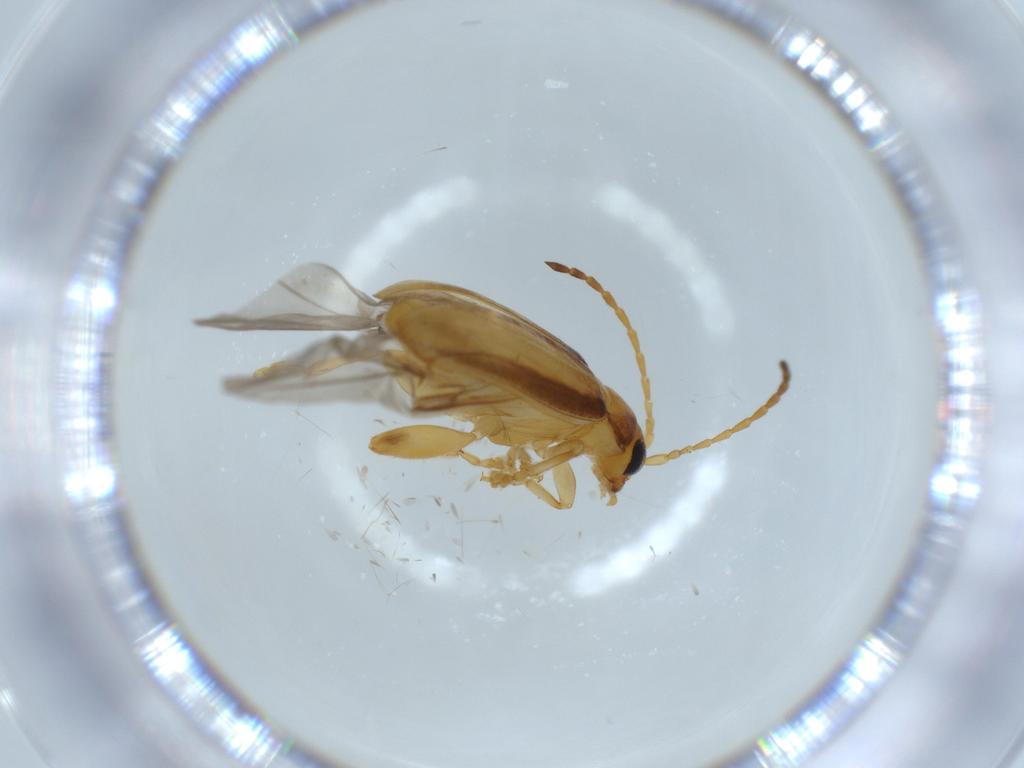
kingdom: Animalia
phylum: Arthropoda
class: Insecta
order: Coleoptera
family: Chrysomelidae
